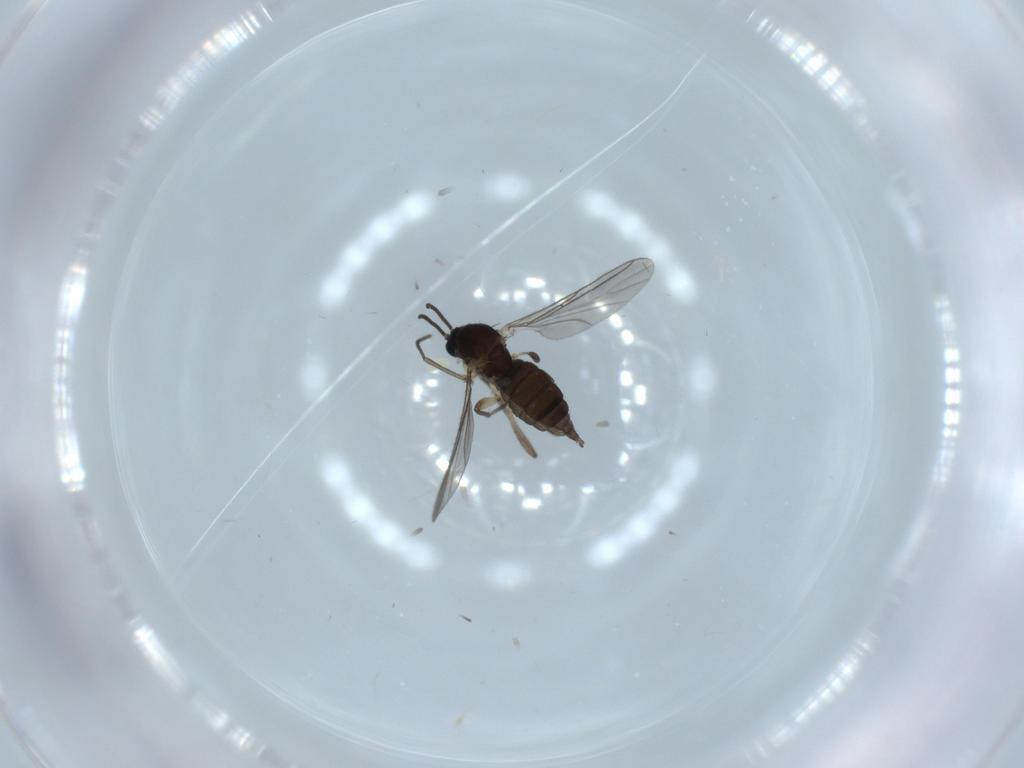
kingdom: Animalia
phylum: Arthropoda
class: Insecta
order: Diptera
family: Sciaridae
